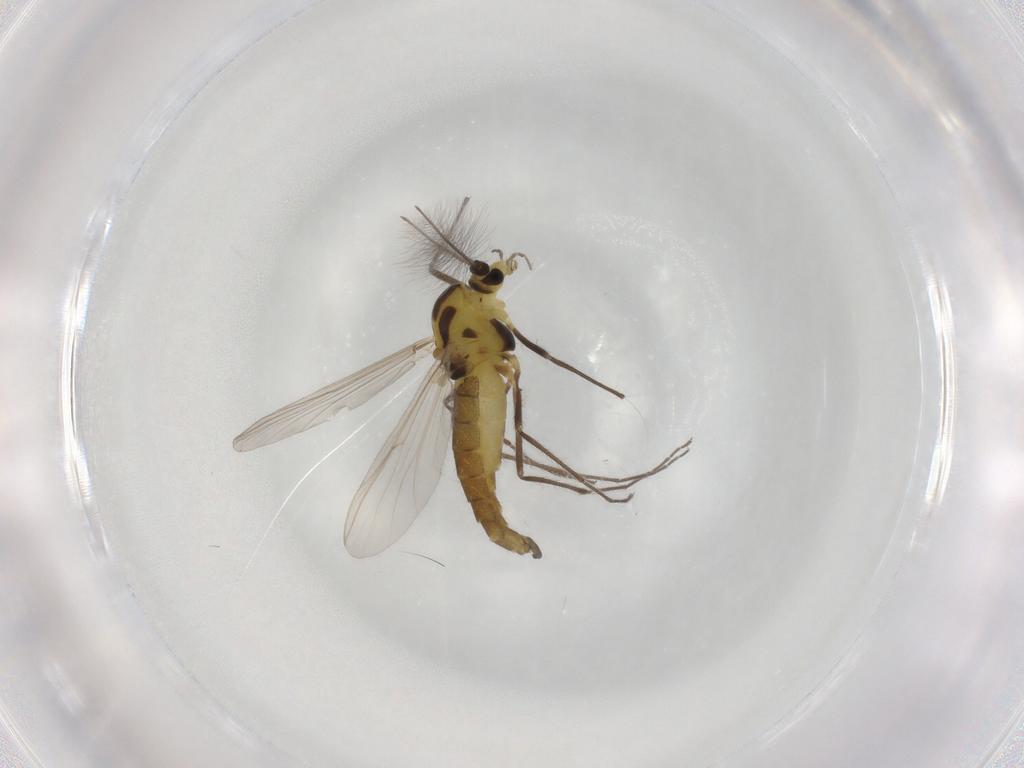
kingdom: Animalia
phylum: Arthropoda
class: Insecta
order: Diptera
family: Chironomidae
